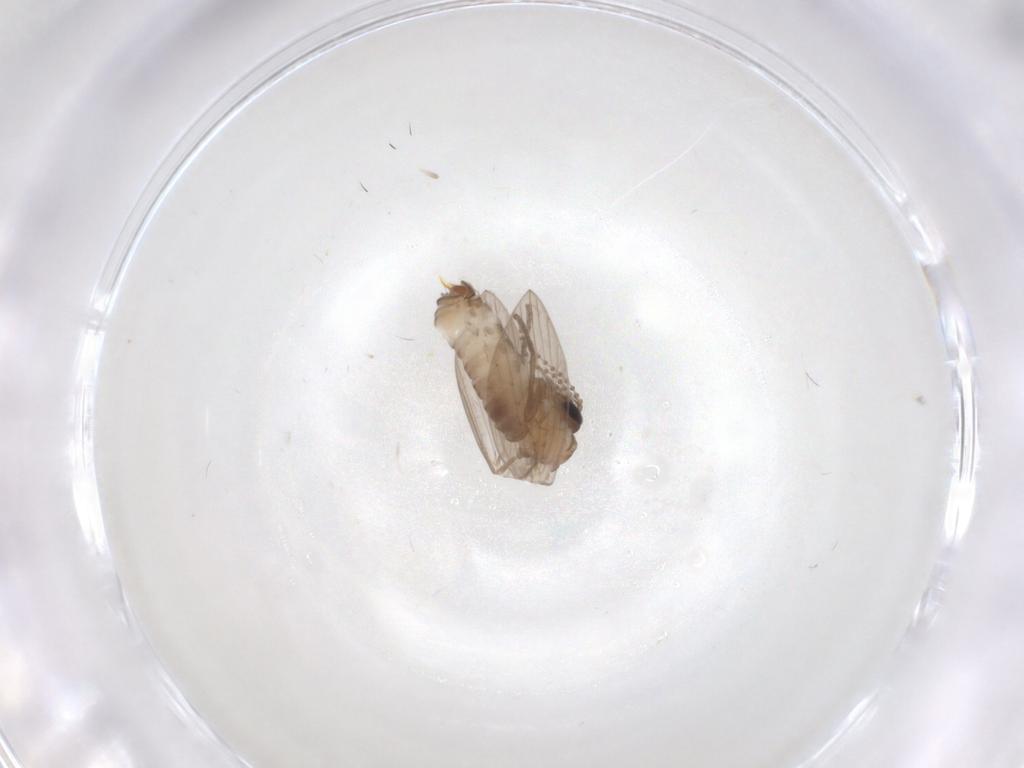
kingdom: Animalia
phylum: Arthropoda
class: Insecta
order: Diptera
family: Psychodidae
